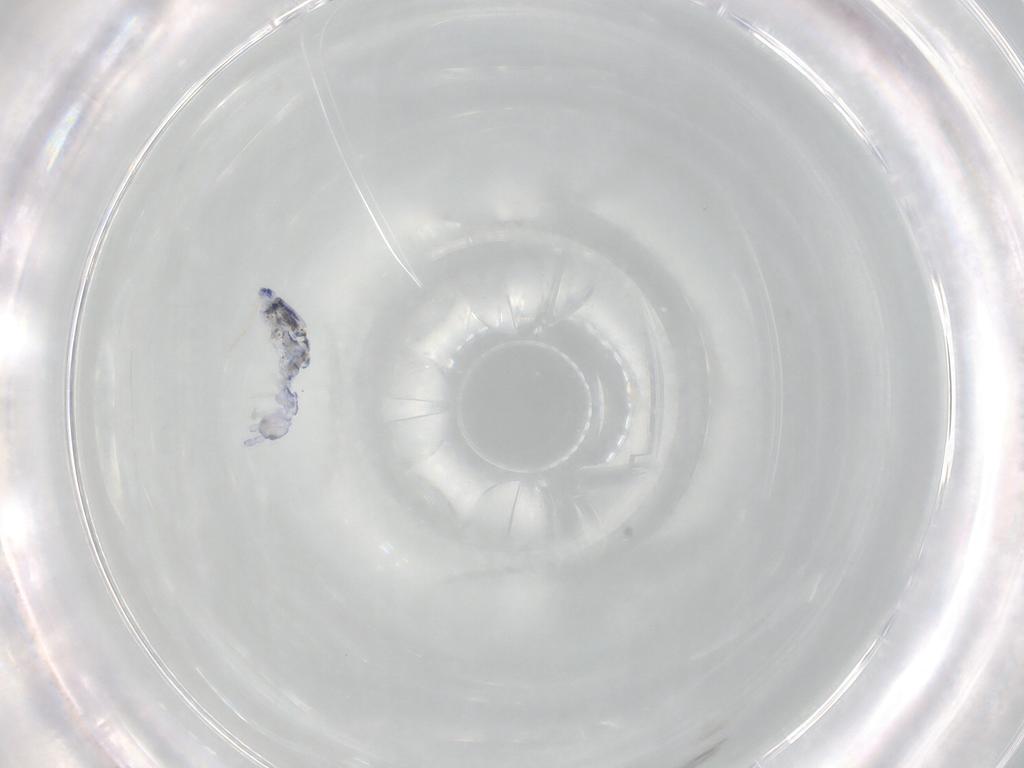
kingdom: Animalia
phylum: Arthropoda
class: Collembola
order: Entomobryomorpha
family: Entomobryidae
